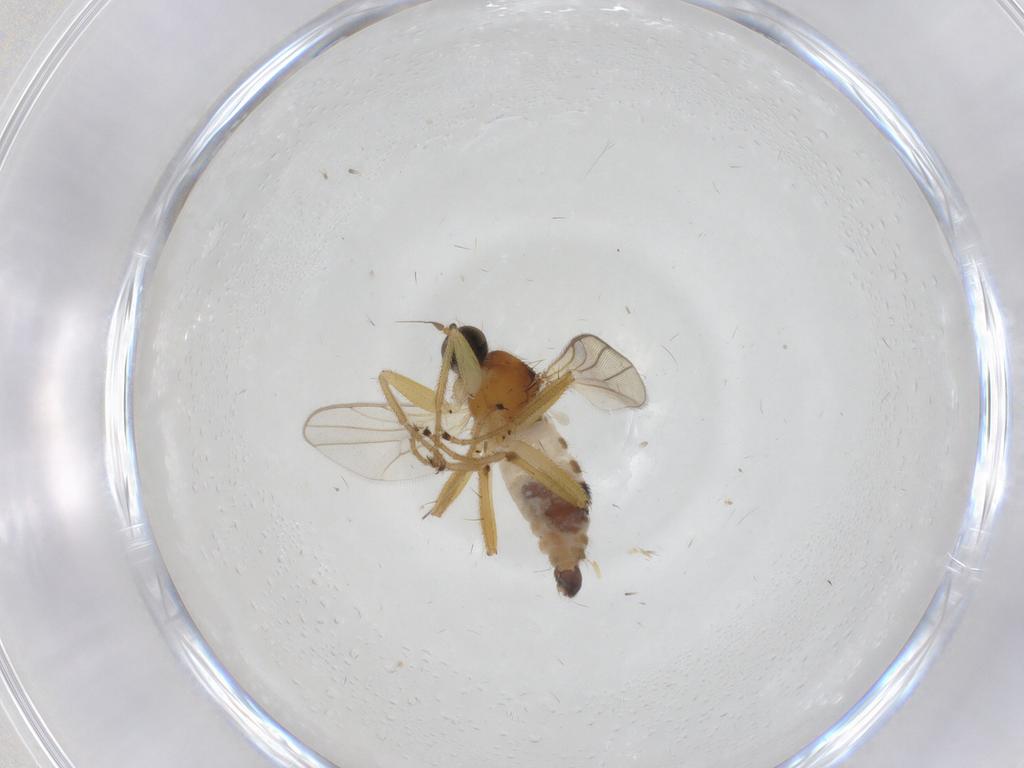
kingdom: Animalia
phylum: Arthropoda
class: Insecta
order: Diptera
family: Hybotidae
